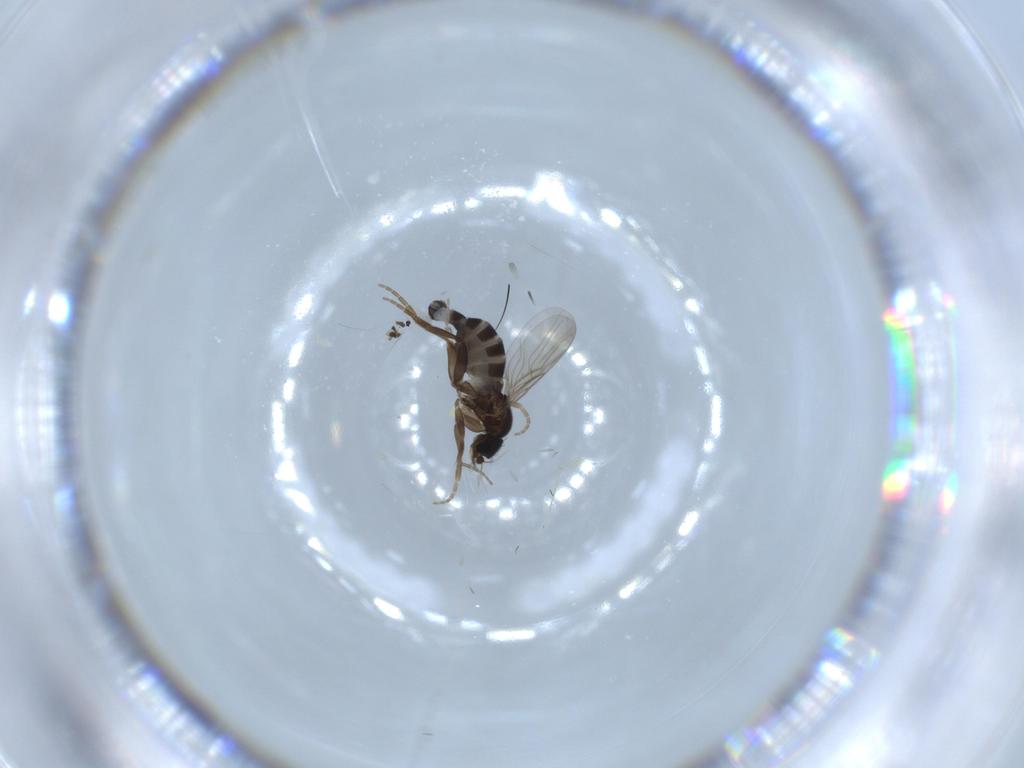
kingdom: Animalia
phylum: Arthropoda
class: Insecta
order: Diptera
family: Phoridae
